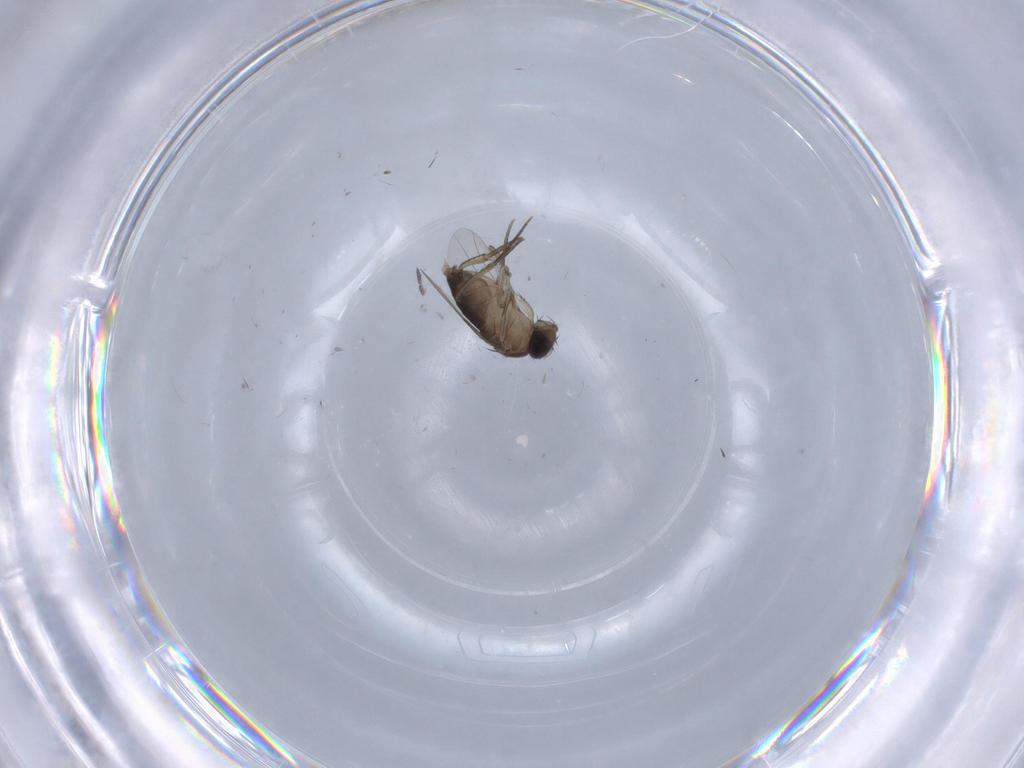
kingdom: Animalia
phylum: Arthropoda
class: Insecta
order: Diptera
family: Phoridae
